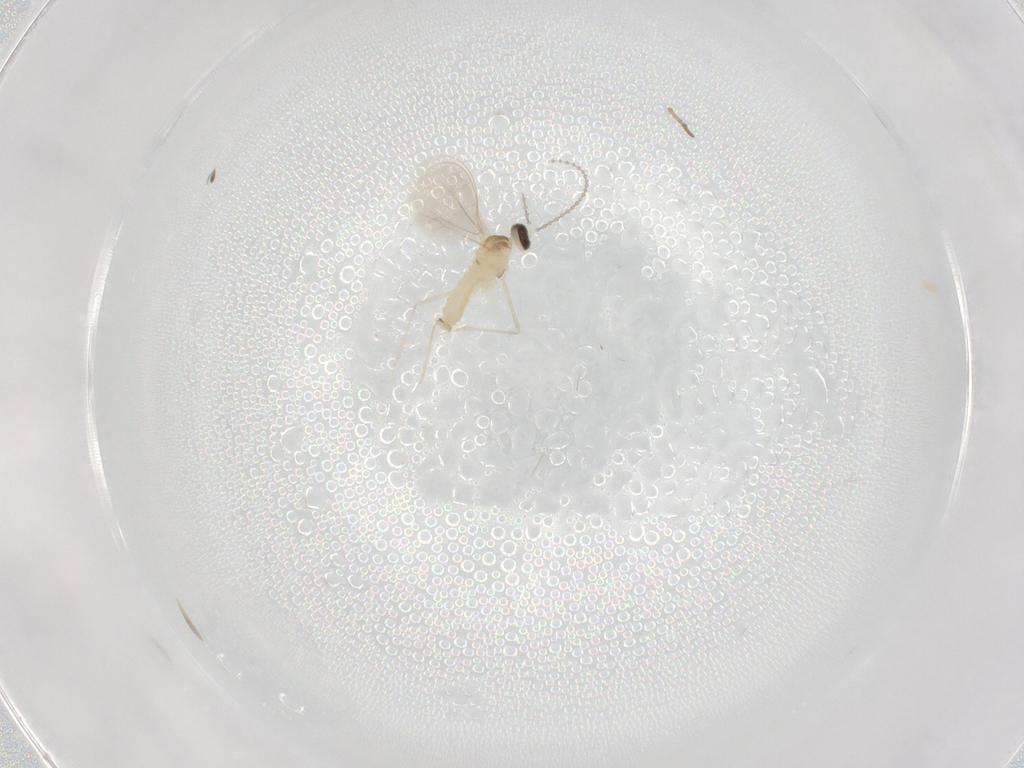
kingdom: Animalia
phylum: Arthropoda
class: Insecta
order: Diptera
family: Cecidomyiidae
